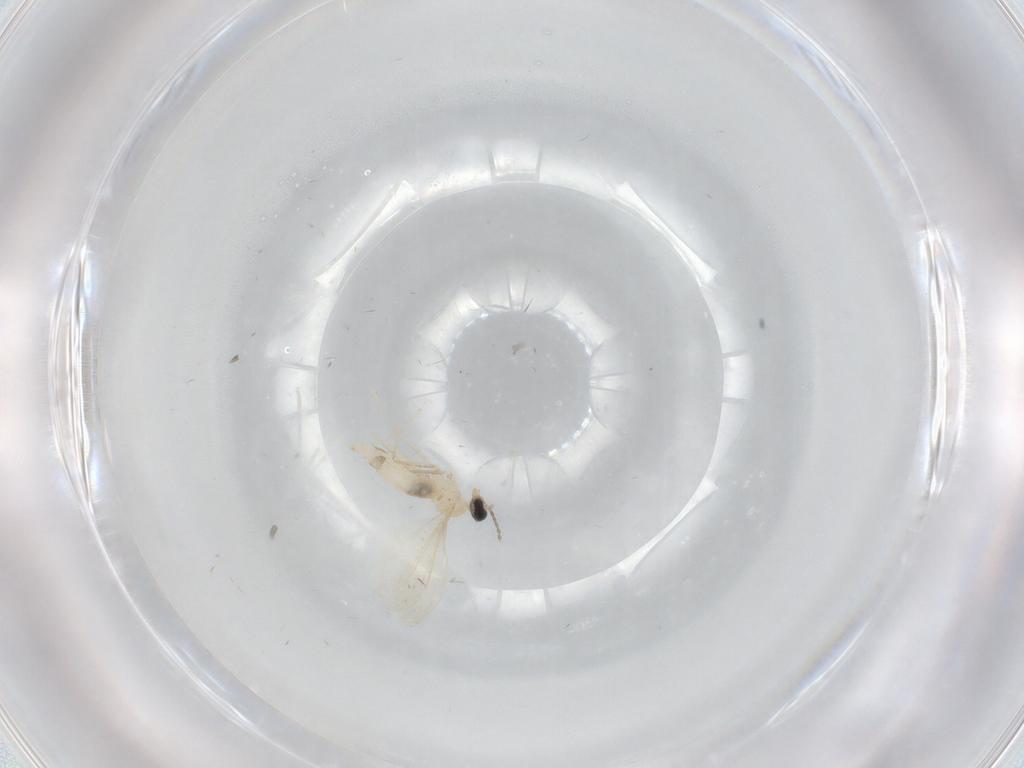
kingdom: Animalia
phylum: Arthropoda
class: Insecta
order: Diptera
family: Cecidomyiidae
